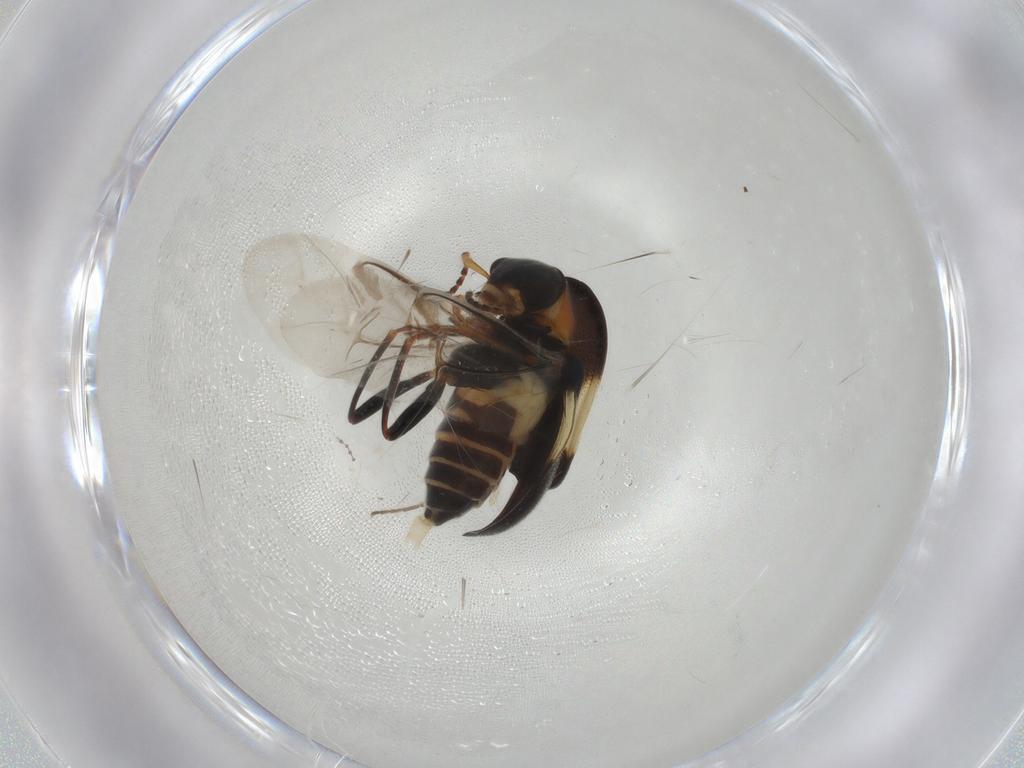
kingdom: Animalia
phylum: Arthropoda
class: Insecta
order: Coleoptera
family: Melyridae
